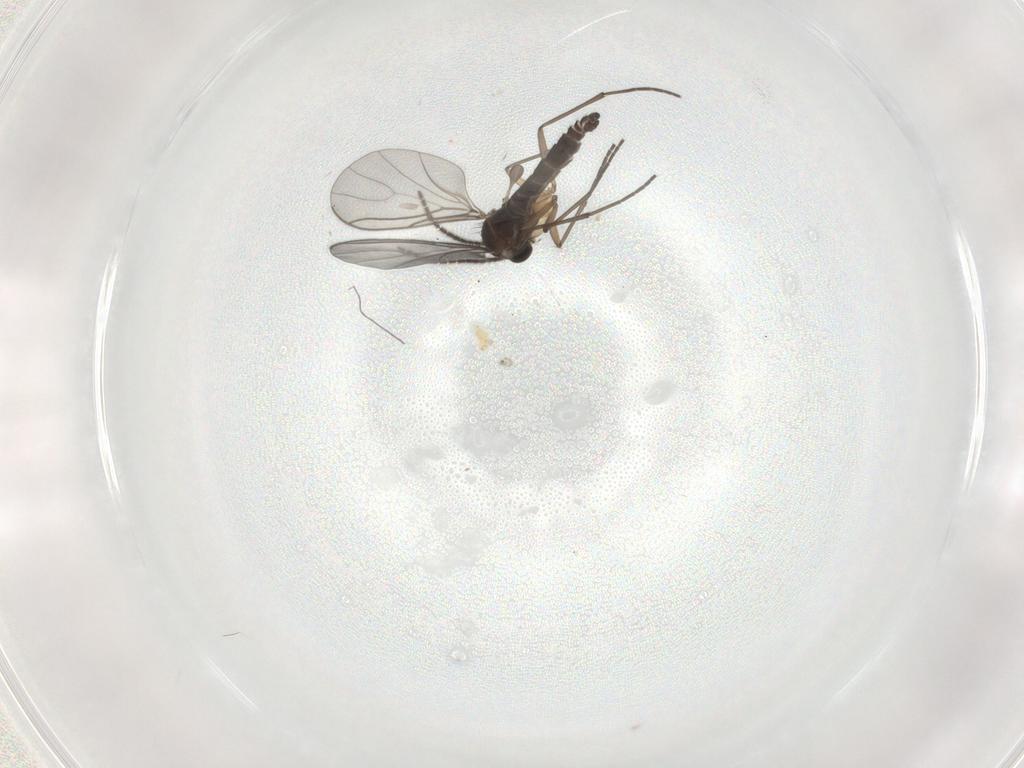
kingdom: Animalia
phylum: Arthropoda
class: Insecta
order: Diptera
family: Sciaridae
